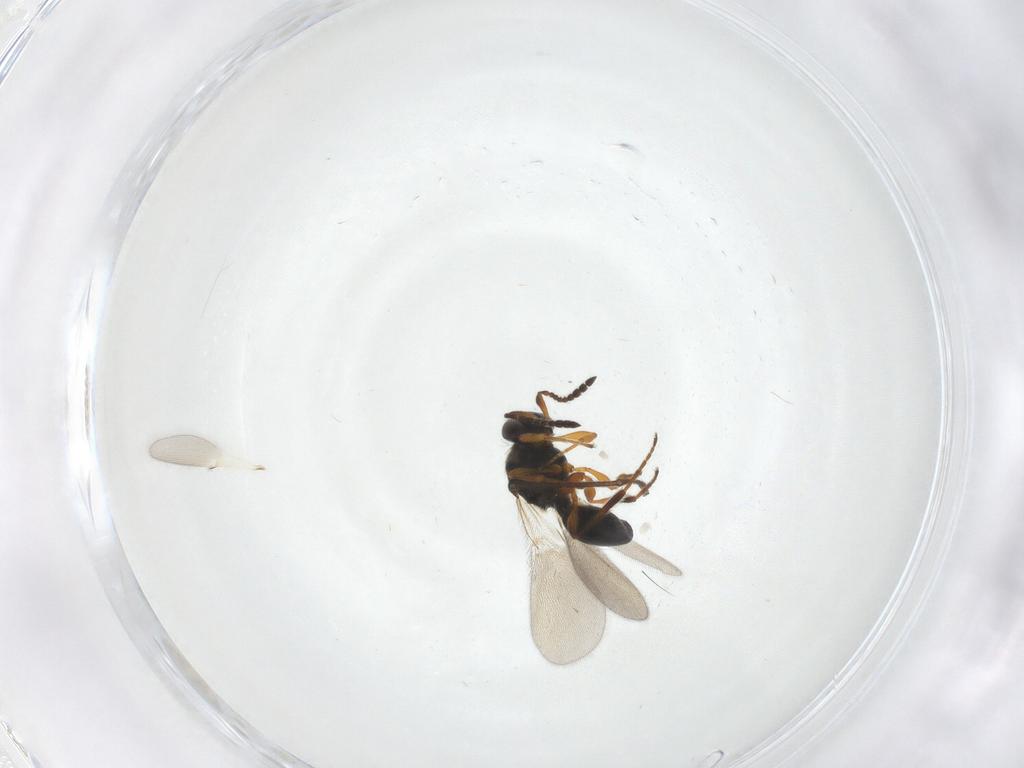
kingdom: Animalia
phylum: Arthropoda
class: Insecta
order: Hymenoptera
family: Platygastridae
